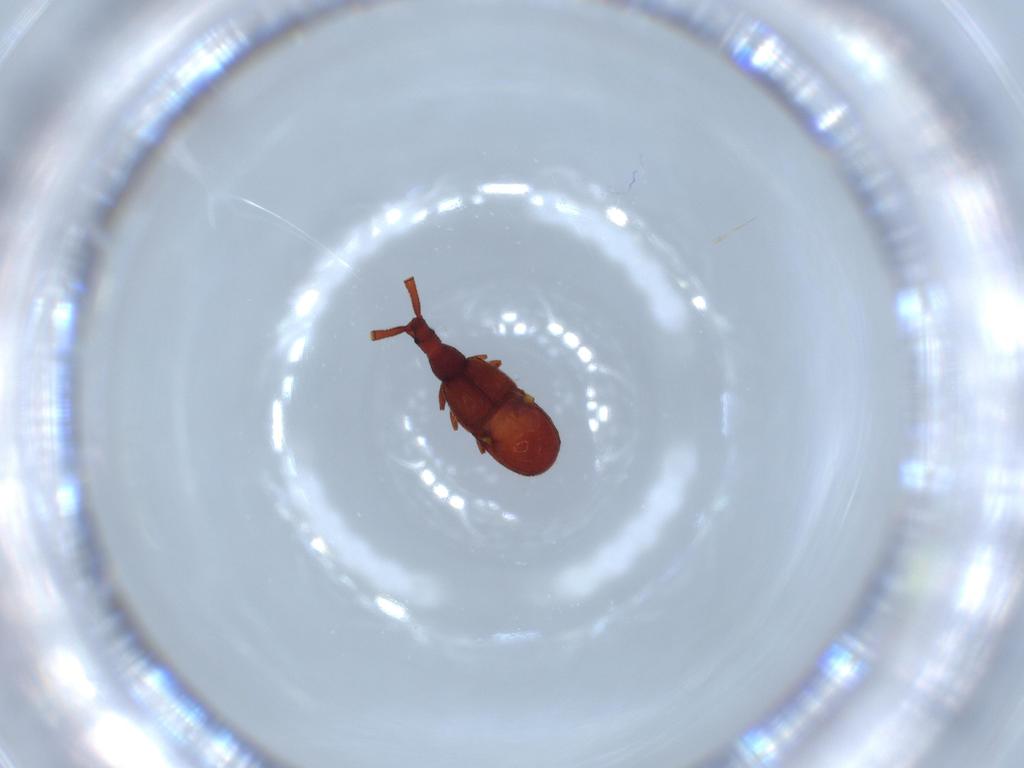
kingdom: Animalia
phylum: Arthropoda
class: Insecta
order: Coleoptera
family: Staphylinidae
